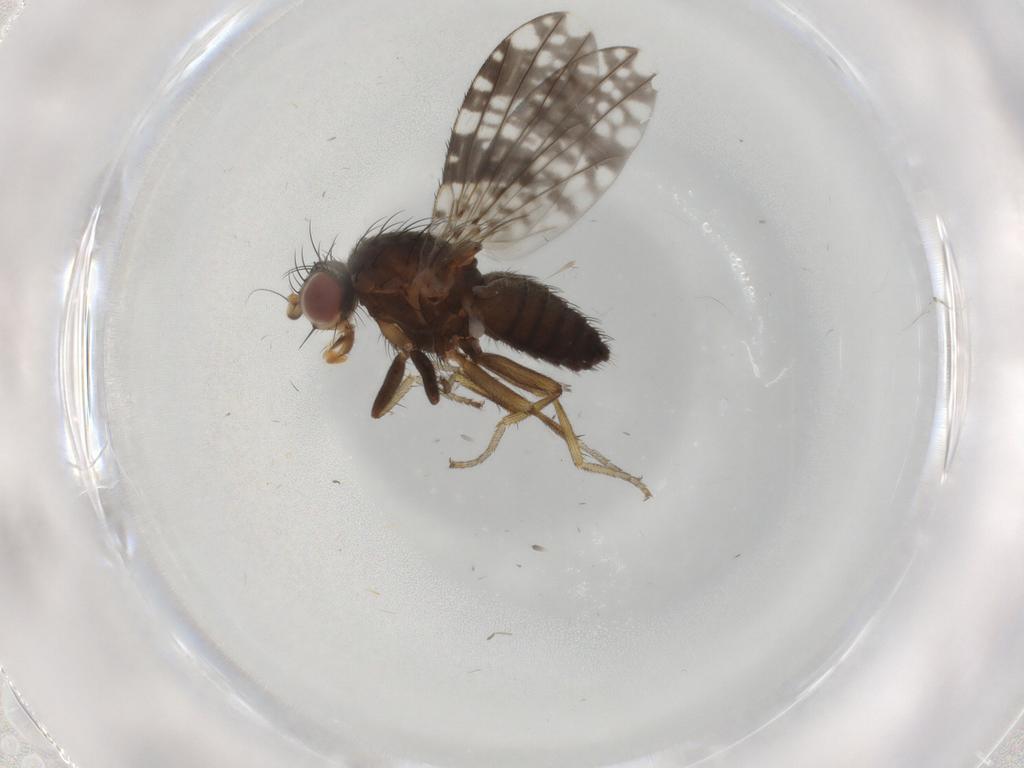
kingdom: Animalia
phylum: Arthropoda
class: Insecta
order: Diptera
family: Tephritidae
